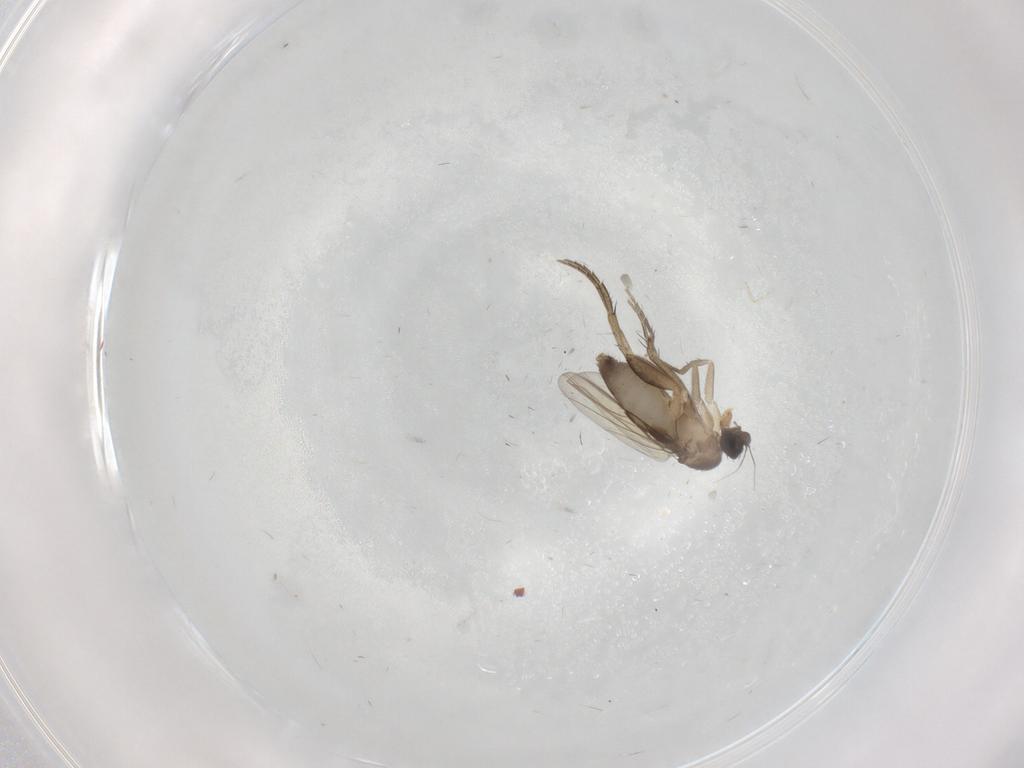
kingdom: Animalia
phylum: Arthropoda
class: Insecta
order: Diptera
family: Phoridae
